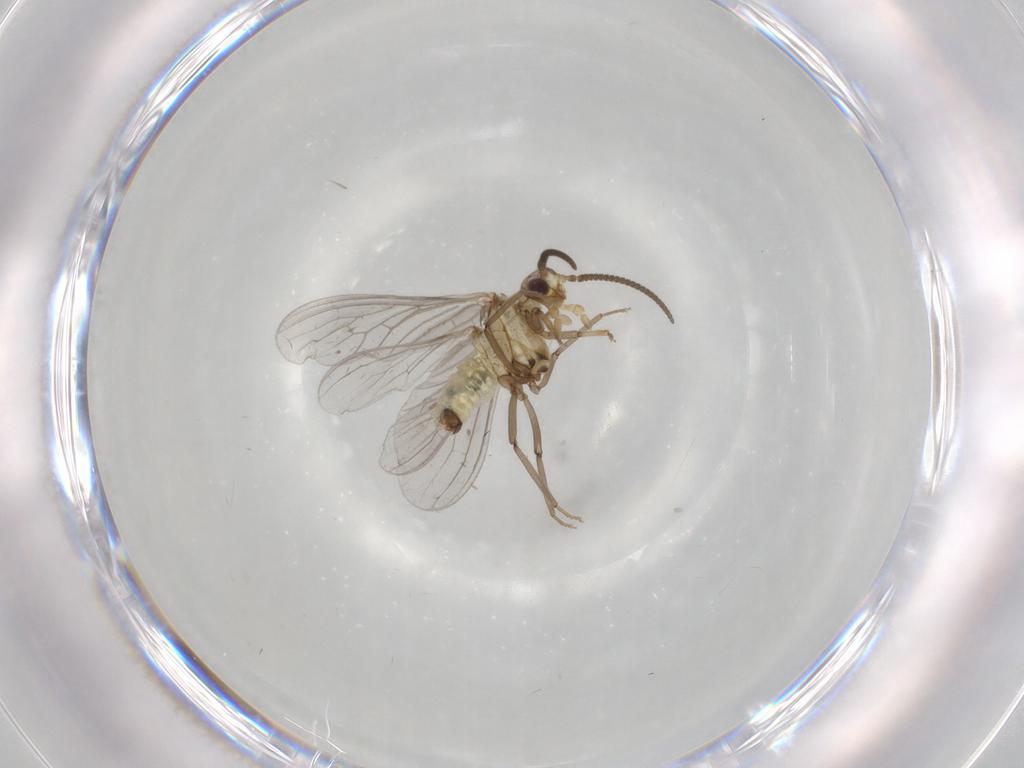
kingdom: Animalia
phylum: Arthropoda
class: Insecta
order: Neuroptera
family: Coniopterygidae
